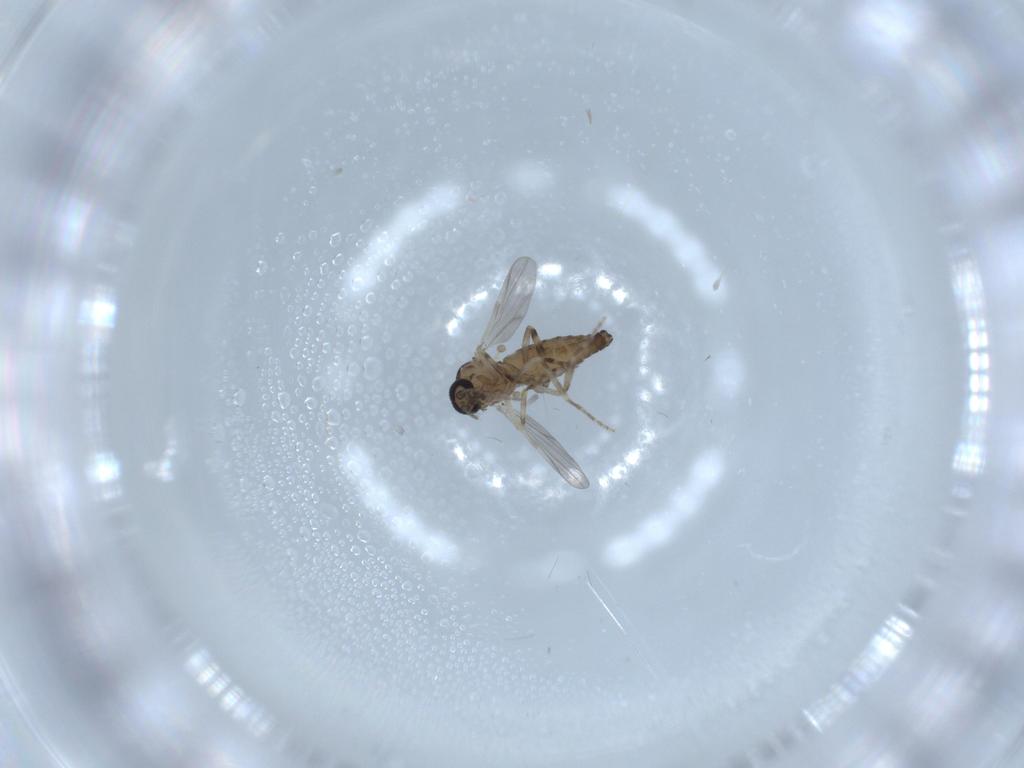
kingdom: Animalia
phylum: Arthropoda
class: Insecta
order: Diptera
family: Ceratopogonidae
